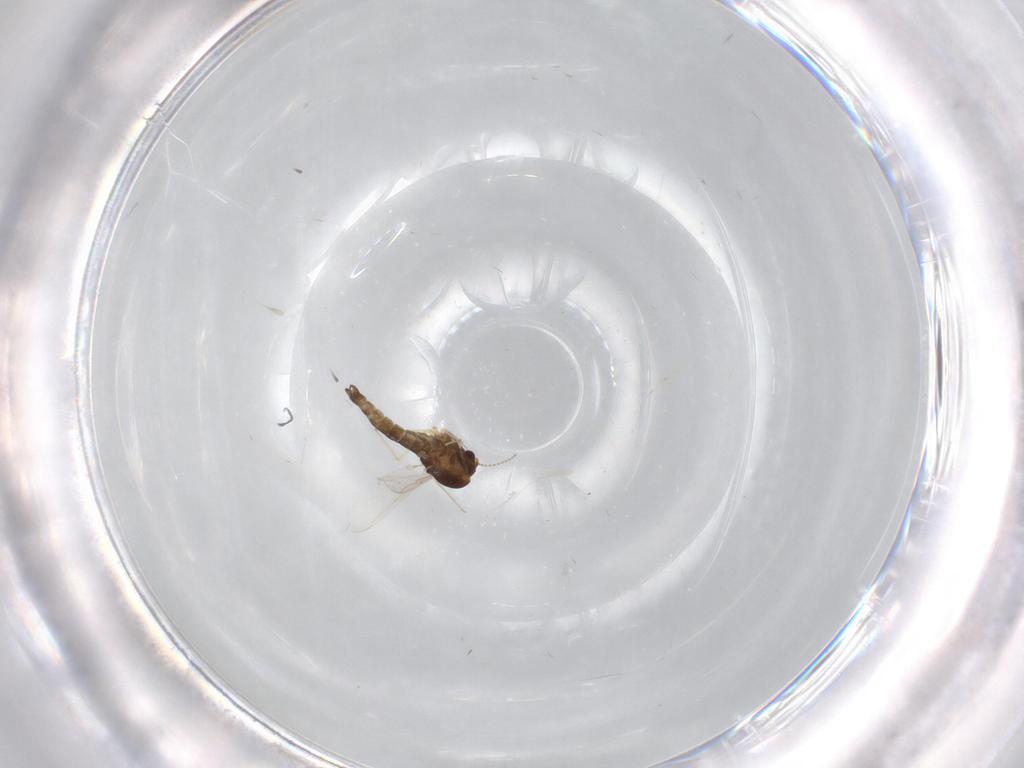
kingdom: Animalia
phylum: Arthropoda
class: Insecta
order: Diptera
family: Chironomidae
